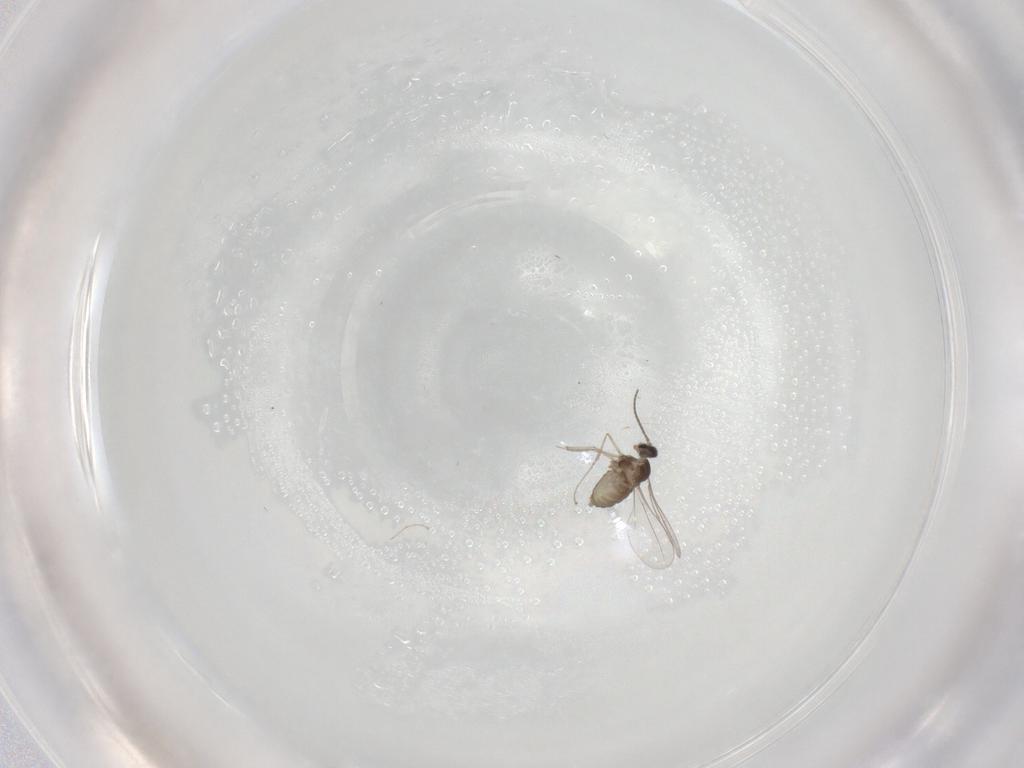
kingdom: Animalia
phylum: Arthropoda
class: Insecta
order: Diptera
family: Cecidomyiidae
